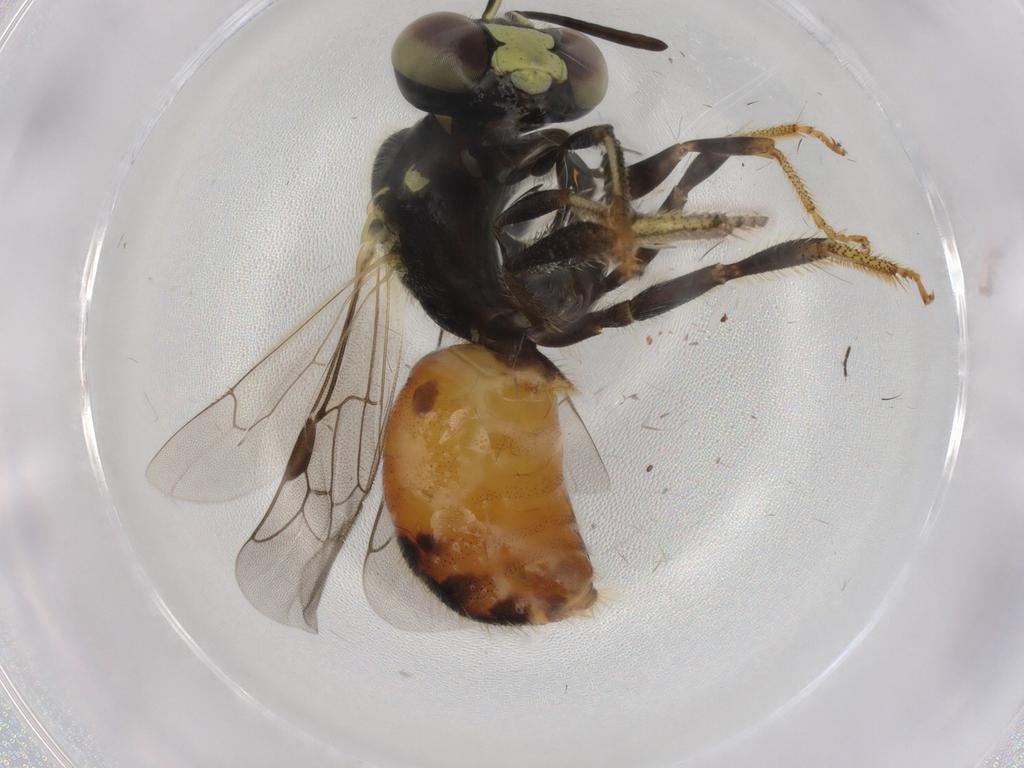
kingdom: Animalia
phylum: Arthropoda
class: Insecta
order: Hymenoptera
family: Apidae
